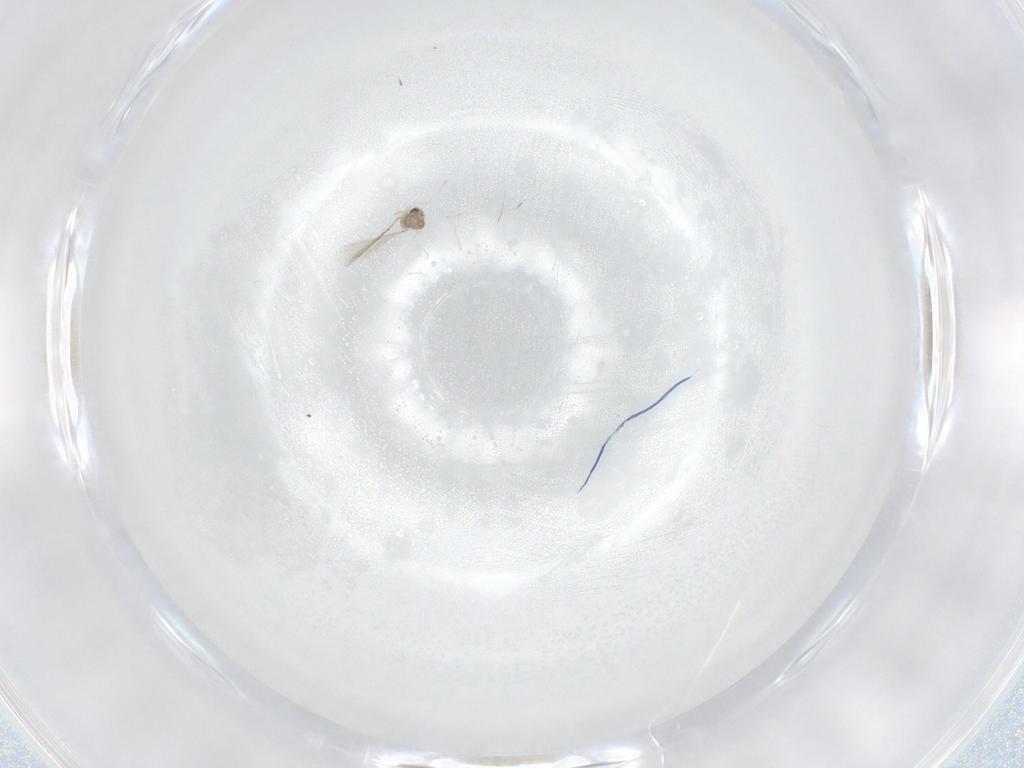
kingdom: Animalia
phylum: Arthropoda
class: Insecta
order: Diptera
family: Cecidomyiidae
